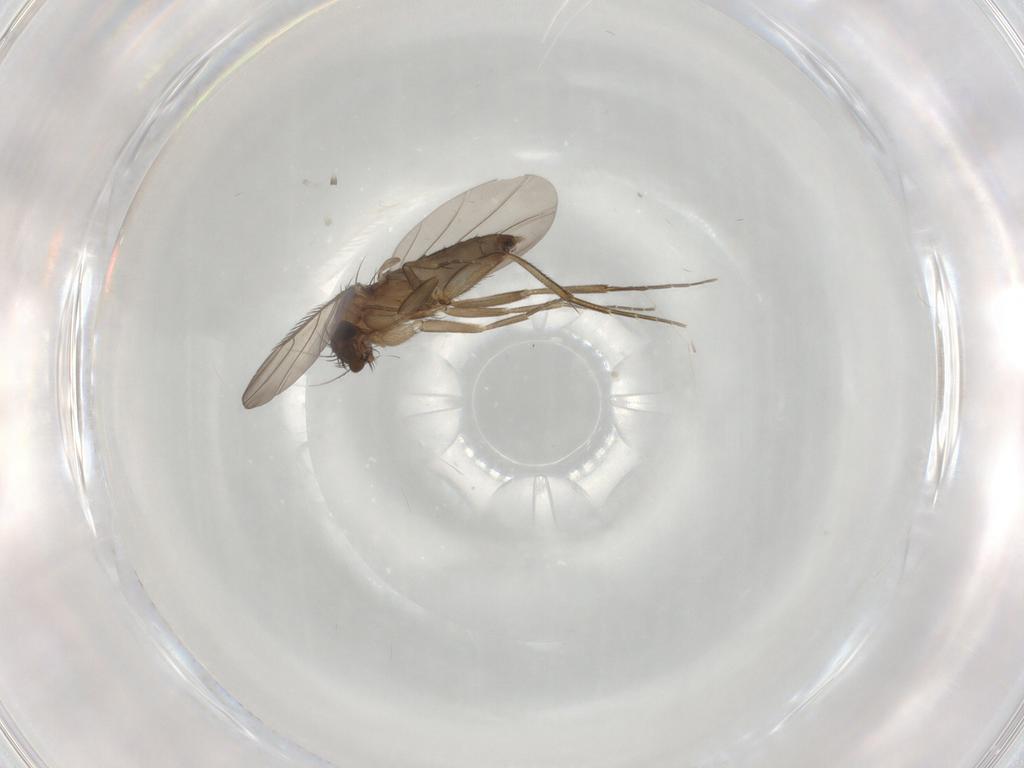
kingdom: Animalia
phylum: Arthropoda
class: Insecta
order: Diptera
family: Phoridae
